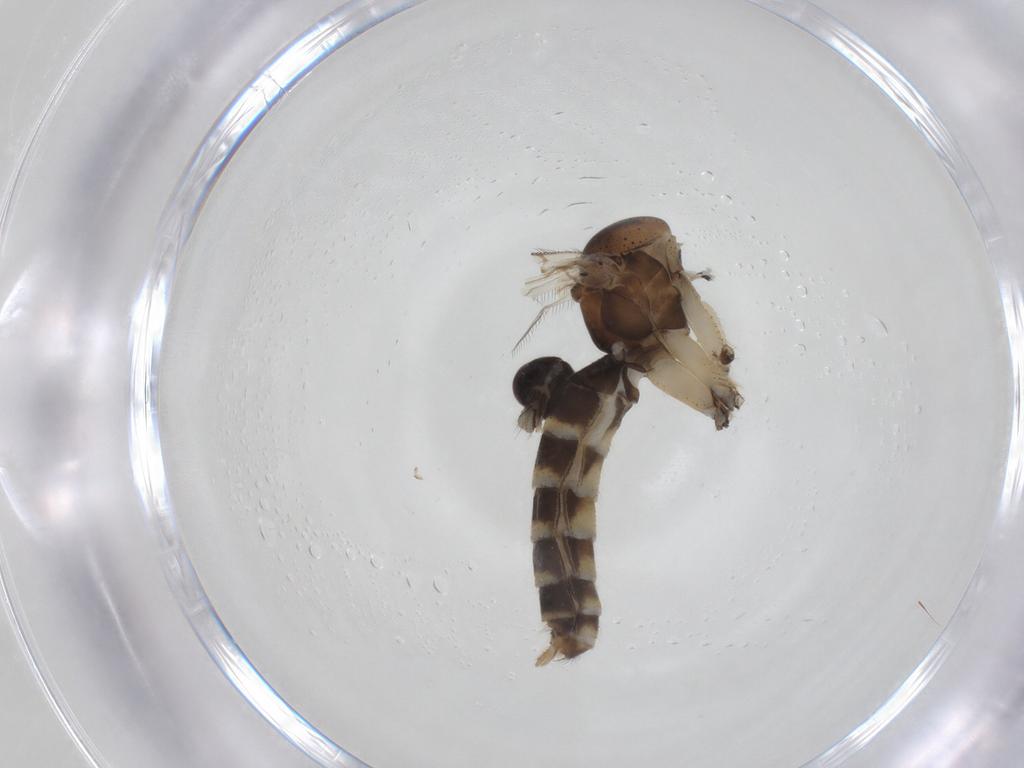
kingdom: Animalia
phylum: Arthropoda
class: Insecta
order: Diptera
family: Mycetophilidae
